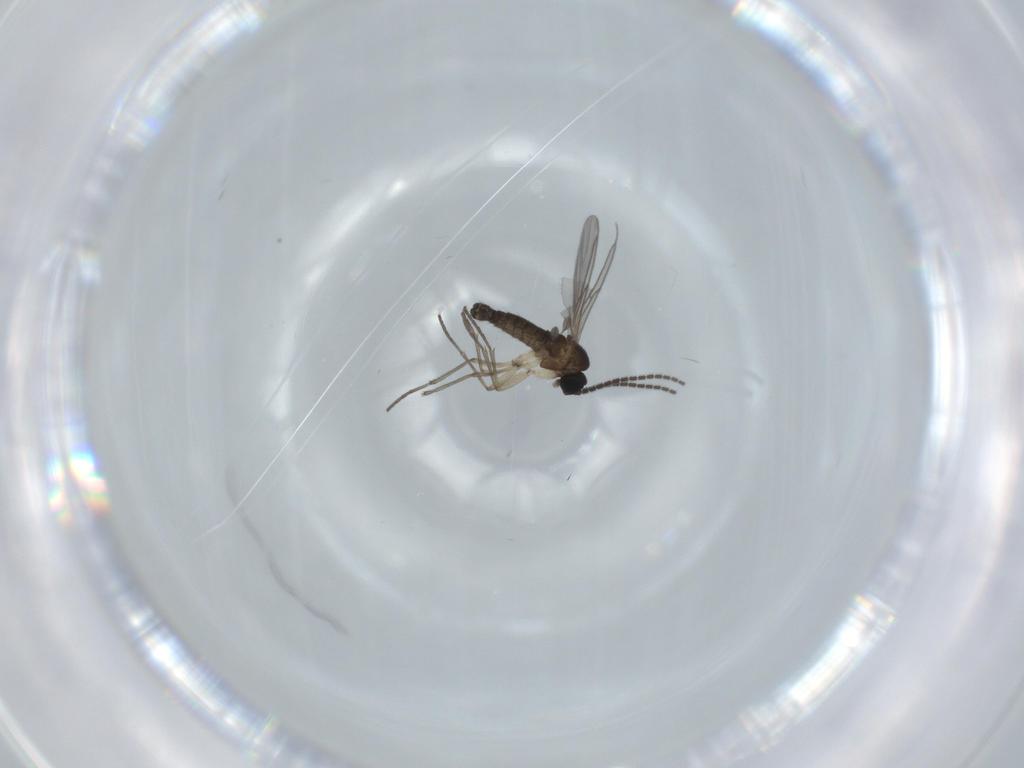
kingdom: Animalia
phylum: Arthropoda
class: Insecta
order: Diptera
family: Sciaridae
